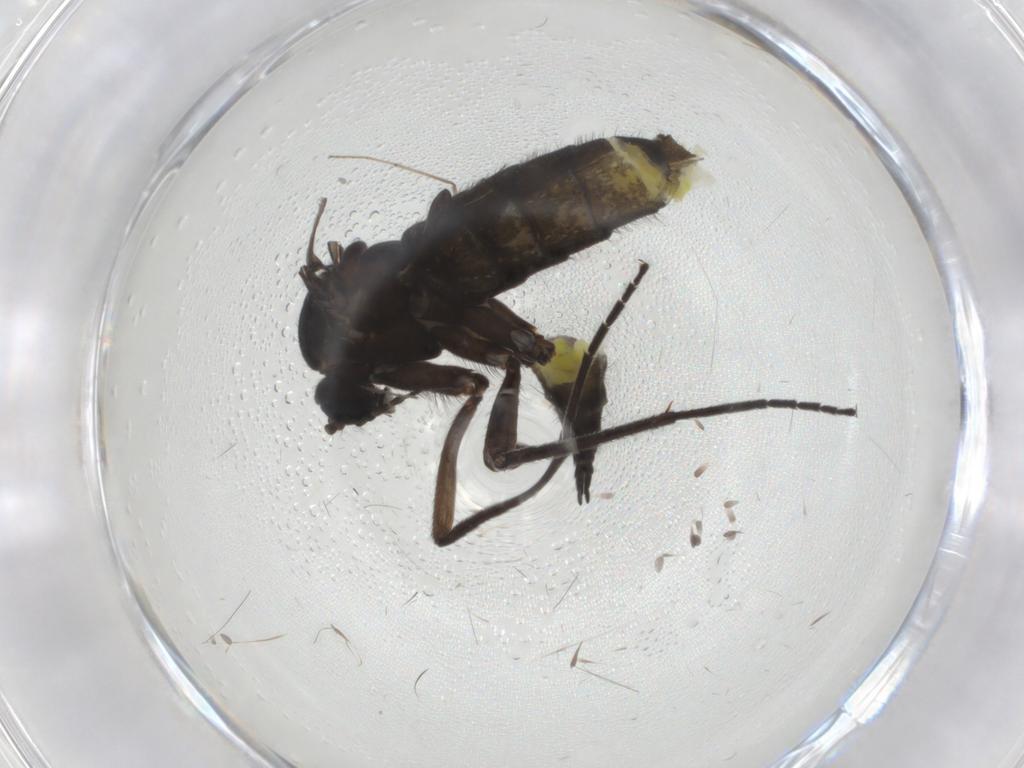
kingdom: Animalia
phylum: Arthropoda
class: Insecta
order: Diptera
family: Sciaridae
